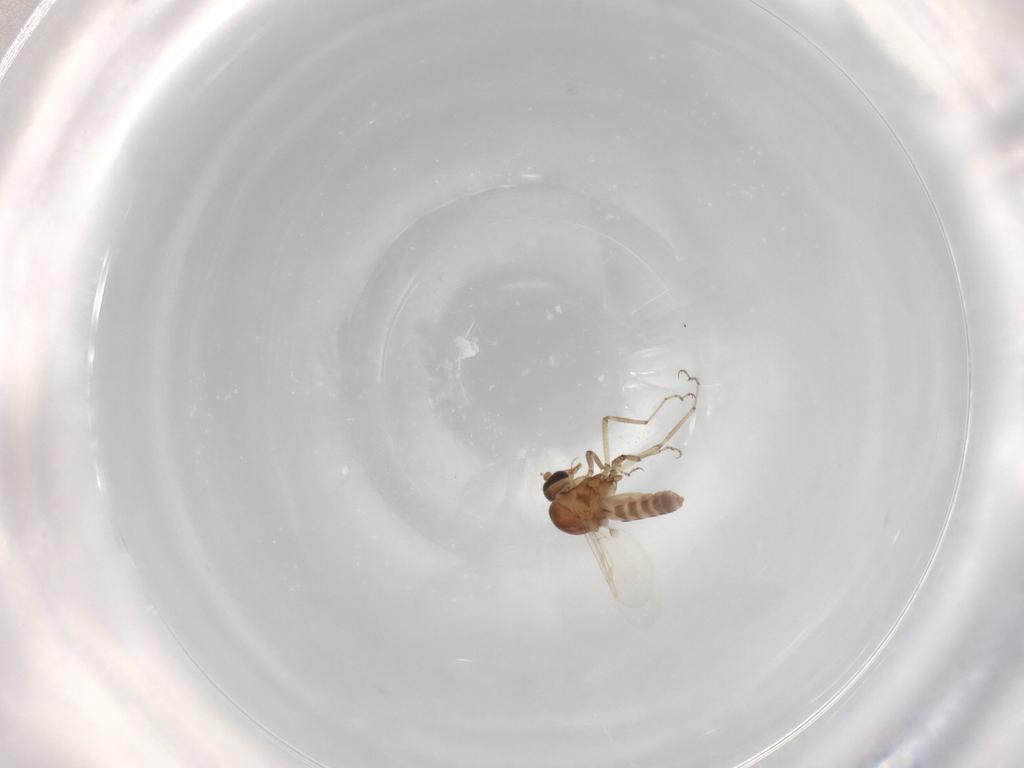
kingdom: Animalia
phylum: Arthropoda
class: Insecta
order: Diptera
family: Ceratopogonidae
